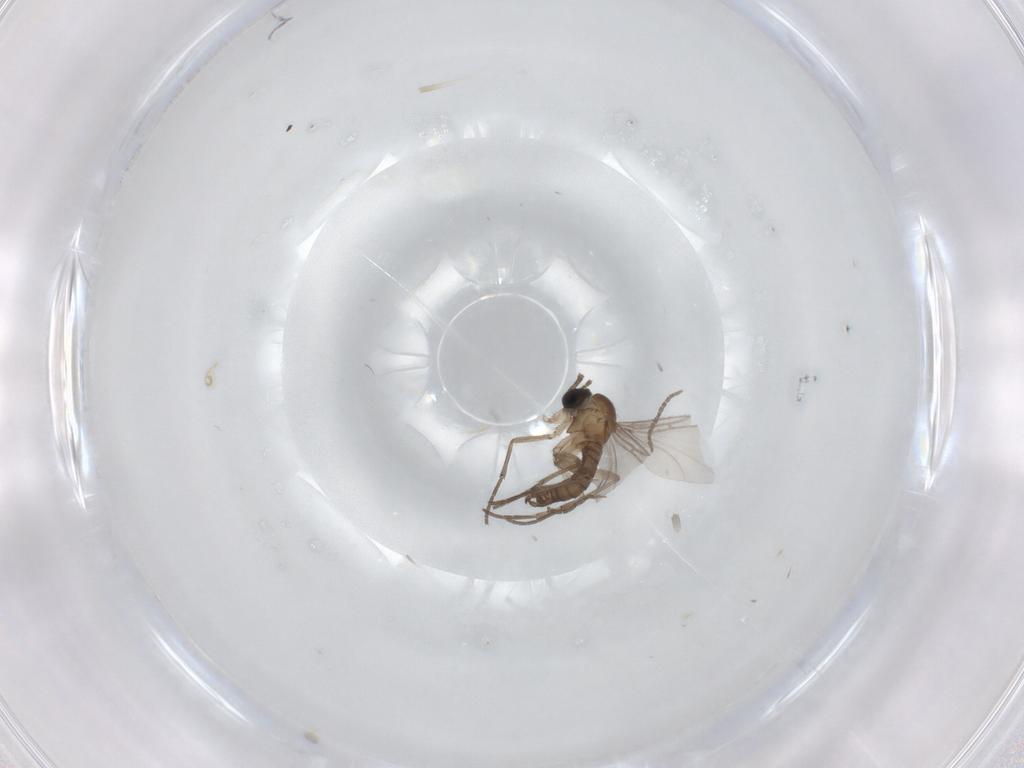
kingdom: Animalia
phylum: Arthropoda
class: Insecta
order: Diptera
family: Sciaridae
